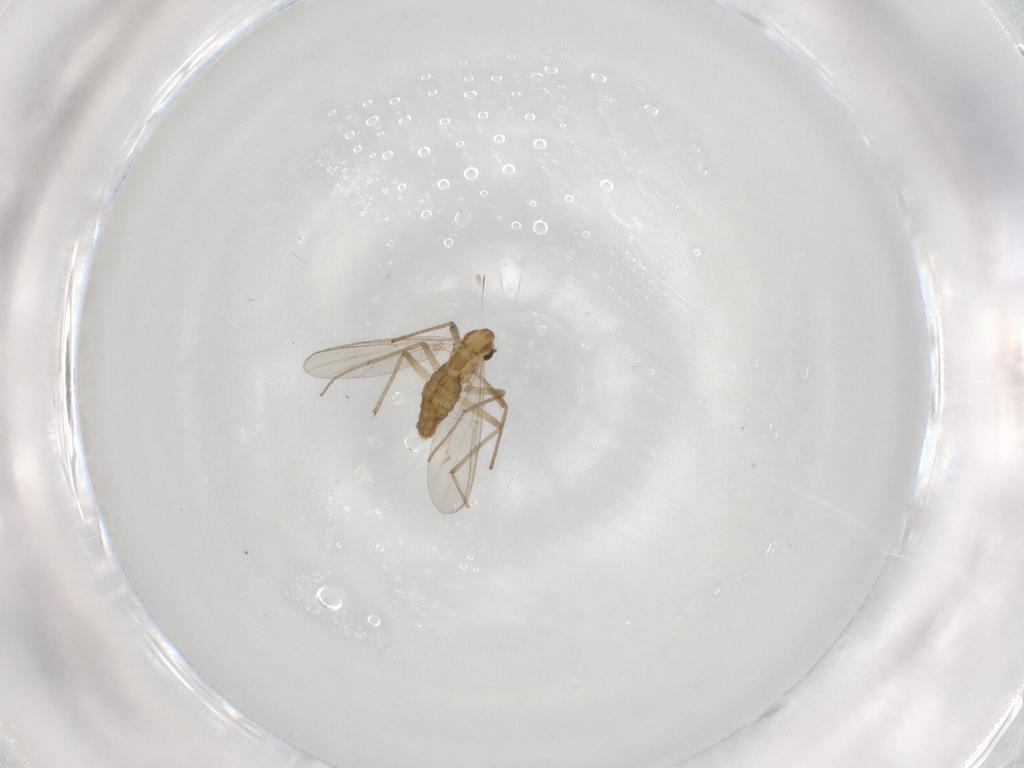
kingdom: Animalia
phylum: Arthropoda
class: Insecta
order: Diptera
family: Chironomidae
